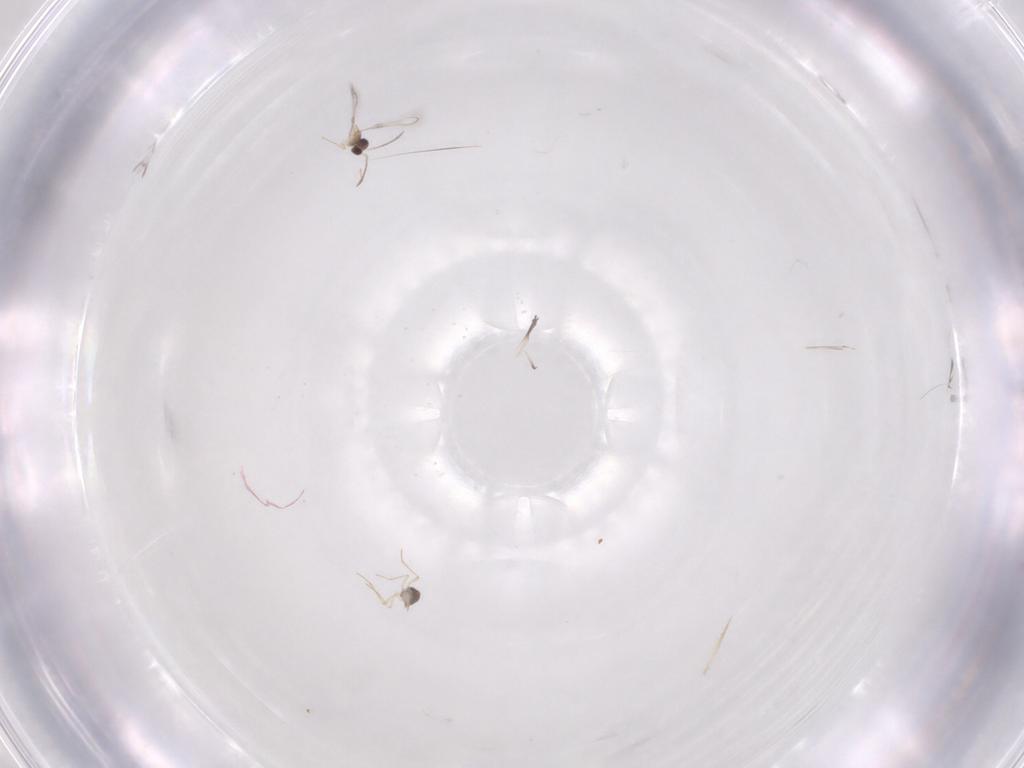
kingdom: Animalia
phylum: Arthropoda
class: Insecta
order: Hymenoptera
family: Mymaridae
